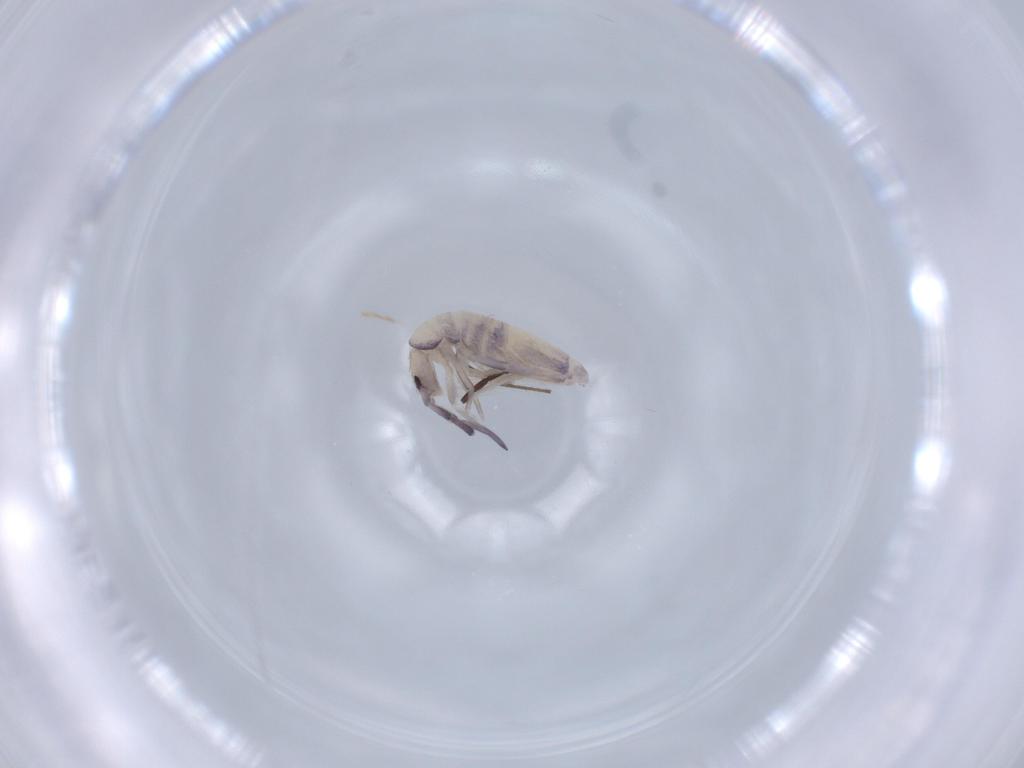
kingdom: Animalia
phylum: Arthropoda
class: Collembola
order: Poduromorpha
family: Hypogastruridae
